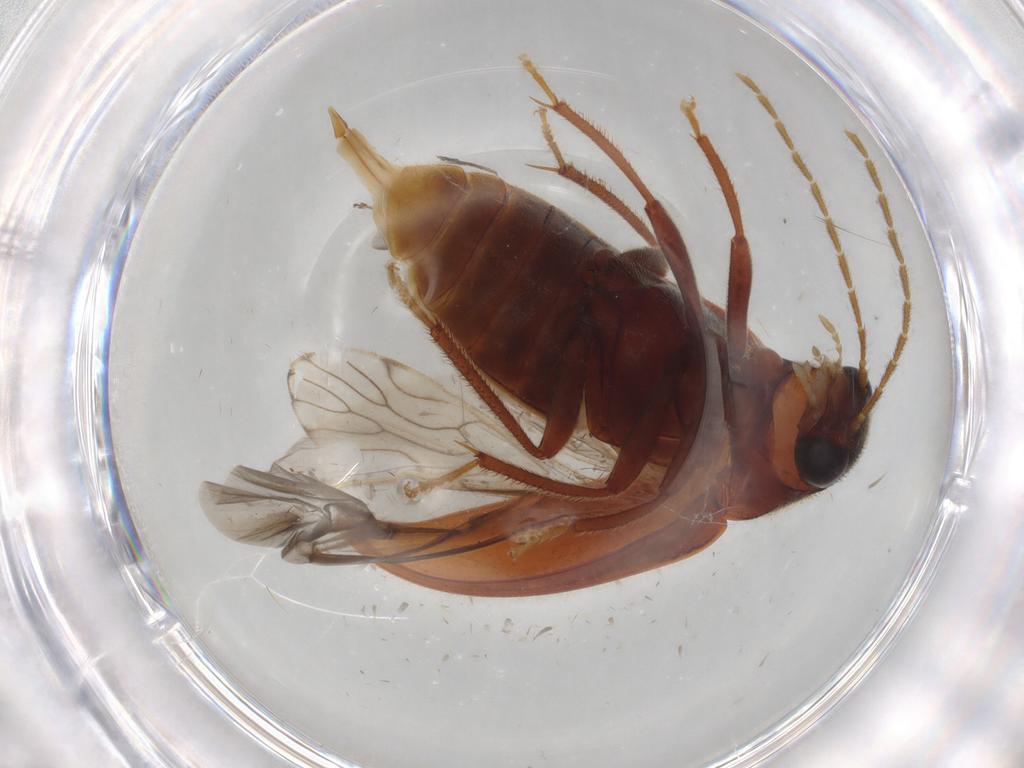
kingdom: Animalia
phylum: Arthropoda
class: Insecta
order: Coleoptera
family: Ptilodactylidae
